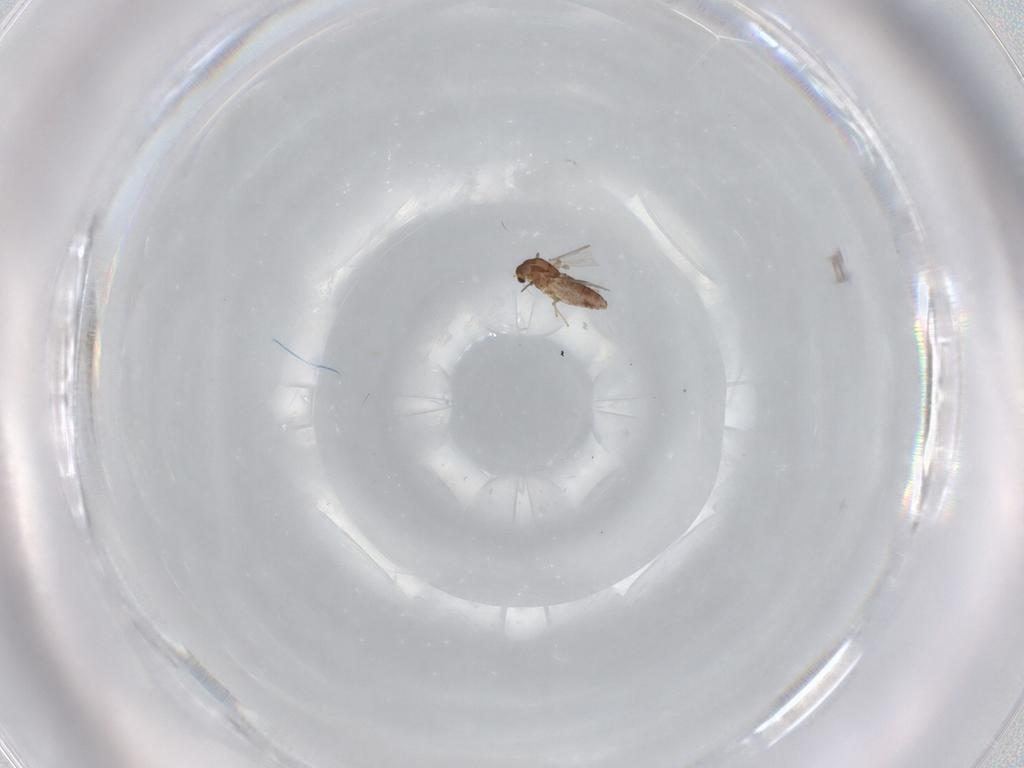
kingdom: Animalia
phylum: Arthropoda
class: Insecta
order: Diptera
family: Chironomidae
